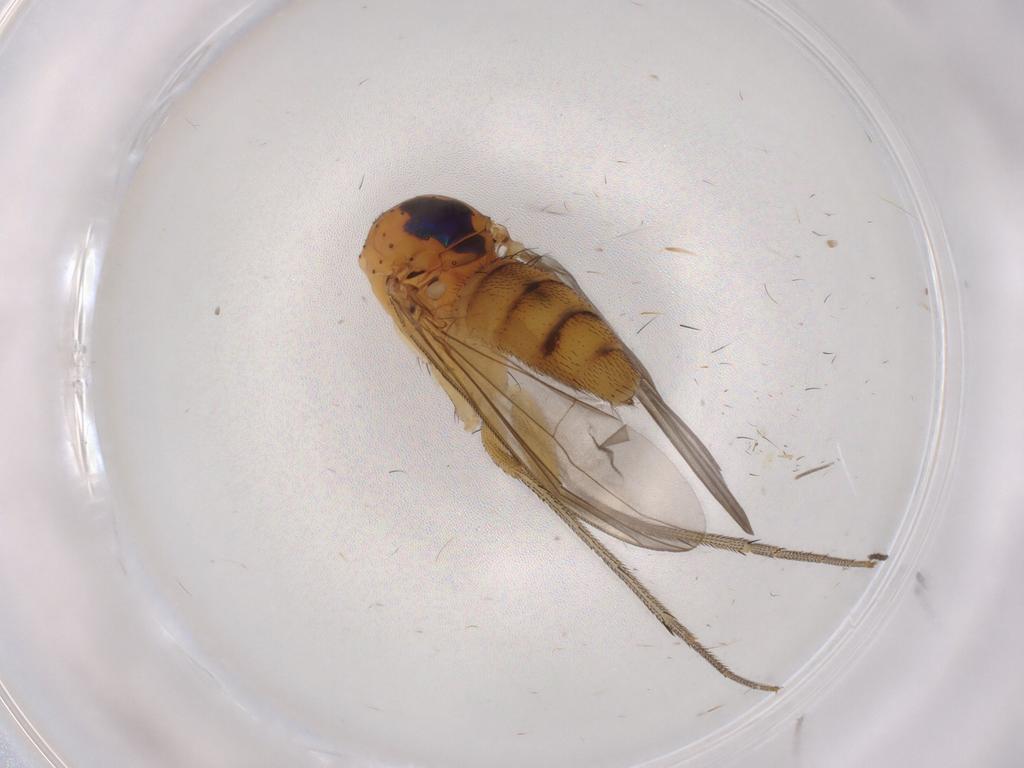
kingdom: Animalia
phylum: Arthropoda
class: Insecta
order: Diptera
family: Dolichopodidae
